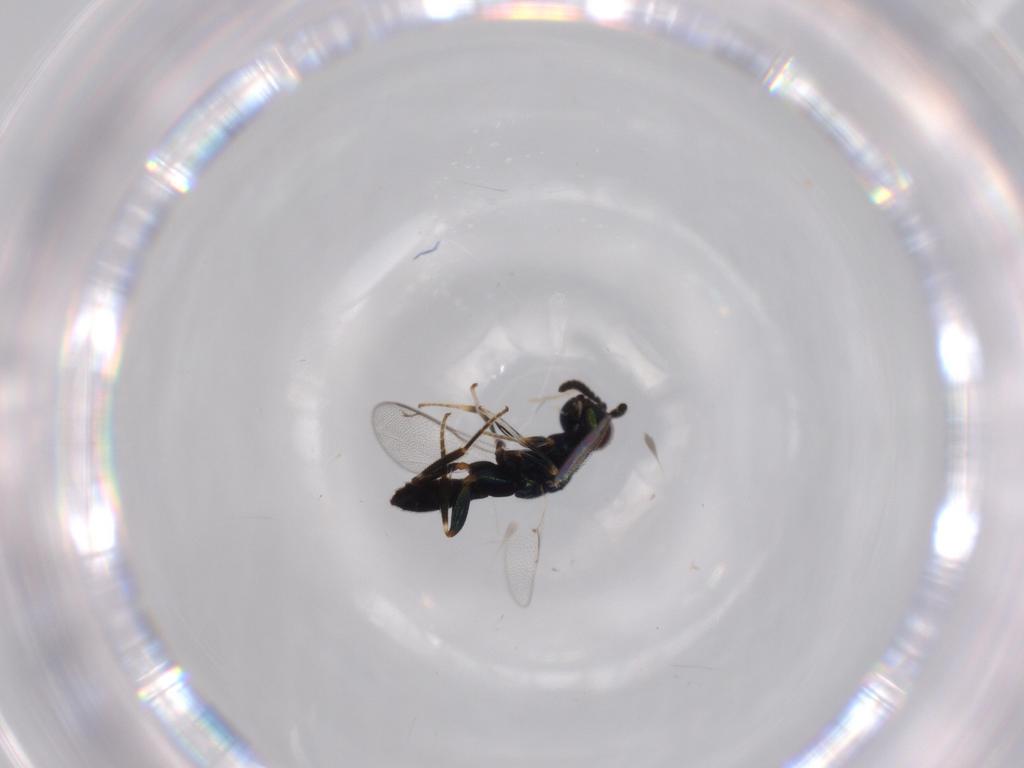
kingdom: Animalia
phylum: Arthropoda
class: Insecta
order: Hymenoptera
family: Cleonyminae
